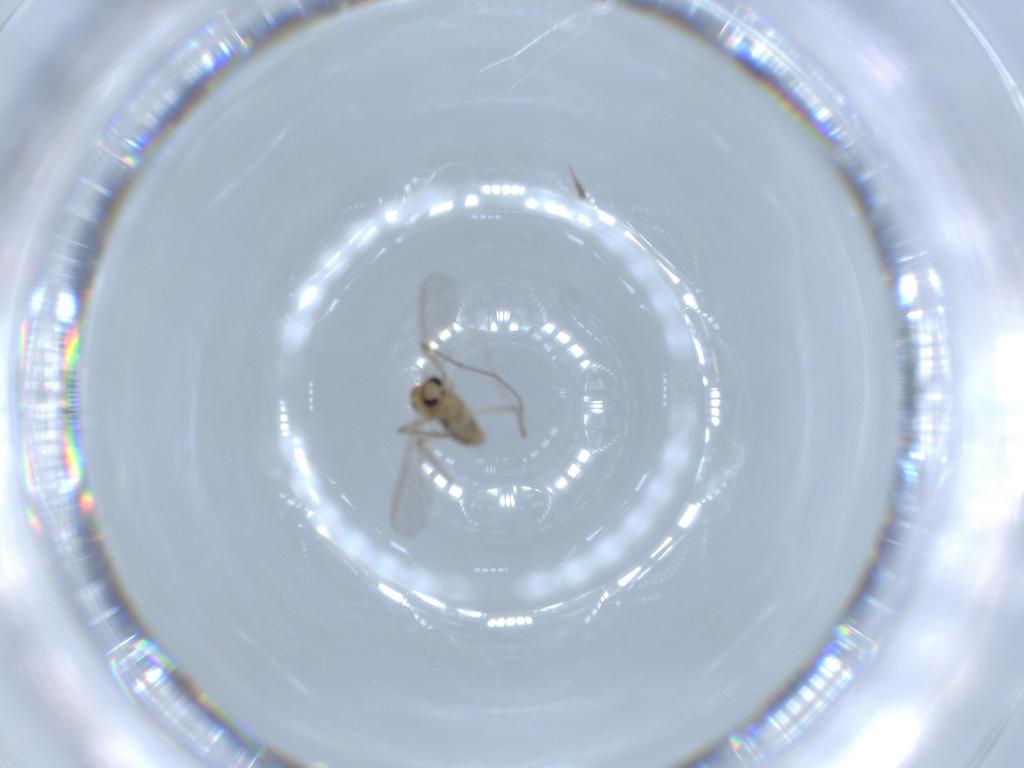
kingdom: Animalia
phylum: Arthropoda
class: Insecta
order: Diptera
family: Chironomidae
